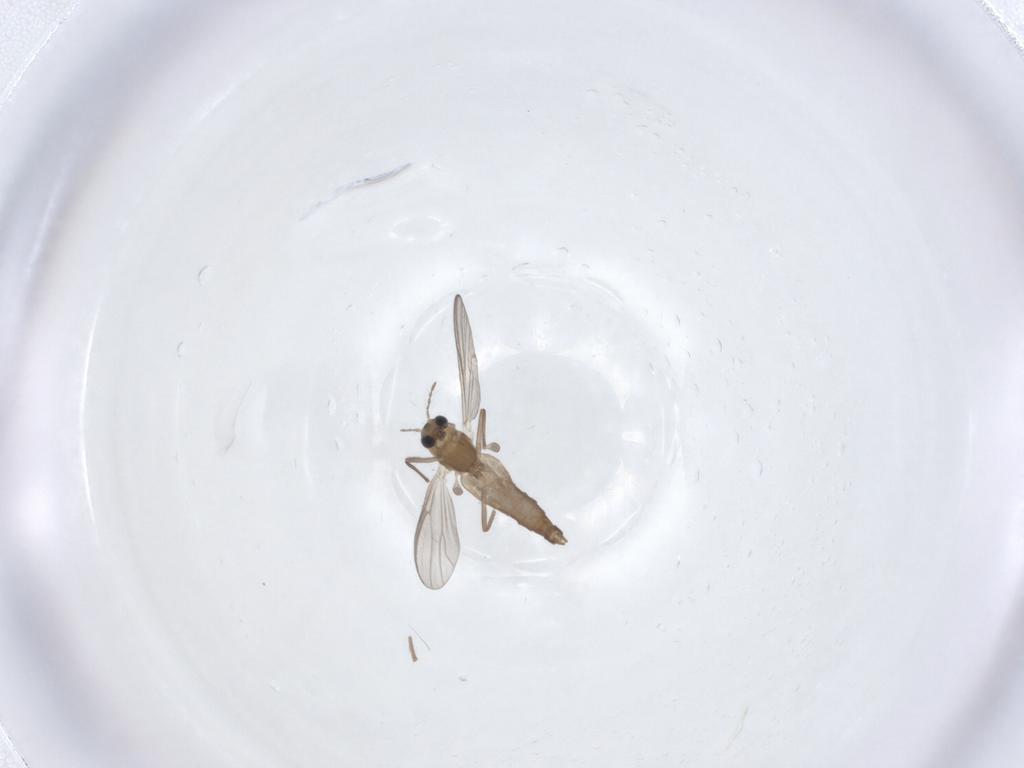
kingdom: Animalia
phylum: Arthropoda
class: Insecta
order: Diptera
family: Chironomidae
